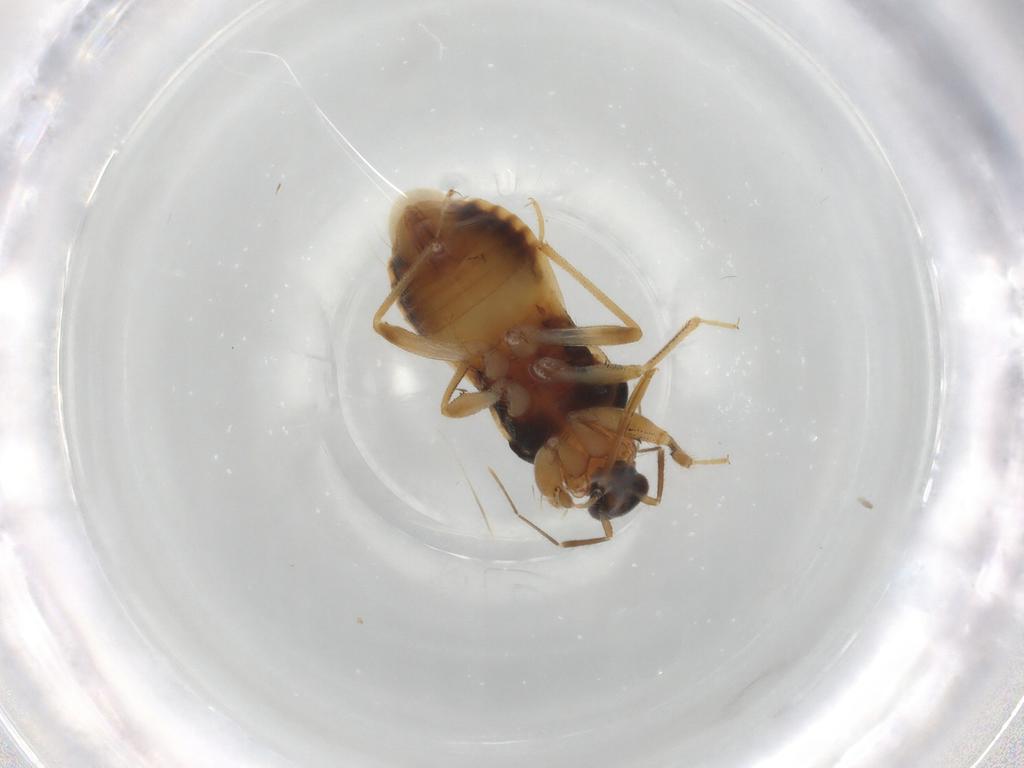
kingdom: Animalia
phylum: Arthropoda
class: Insecta
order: Hemiptera
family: Nabidae
